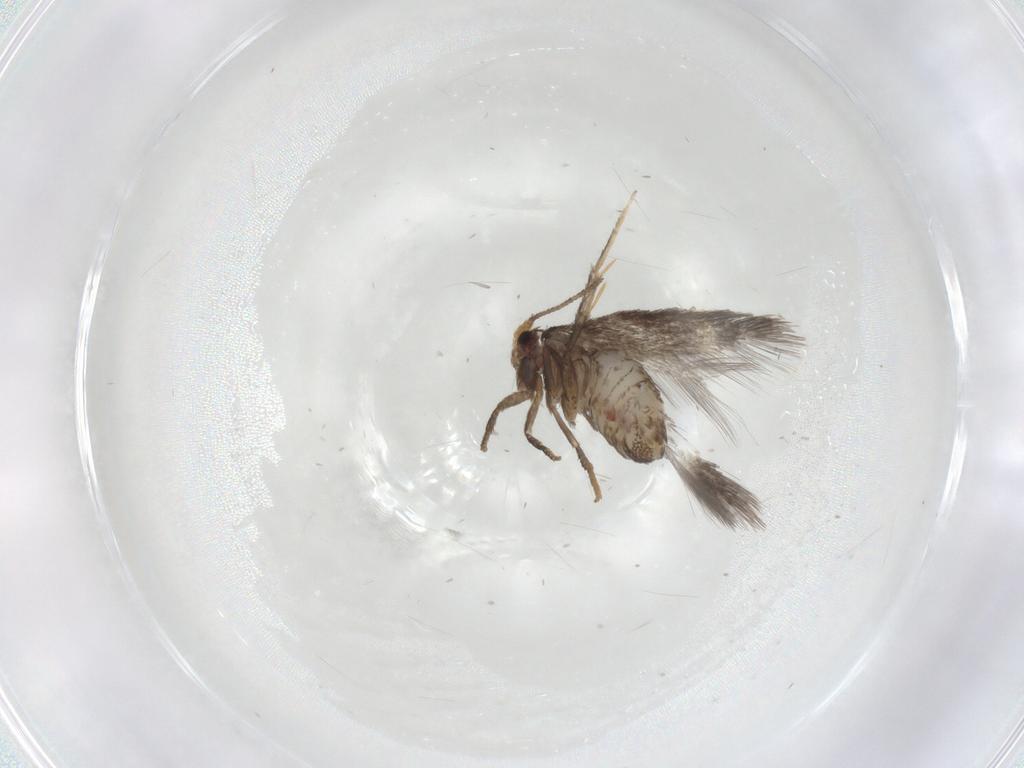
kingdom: Animalia
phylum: Arthropoda
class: Insecta
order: Lepidoptera
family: Nepticulidae
